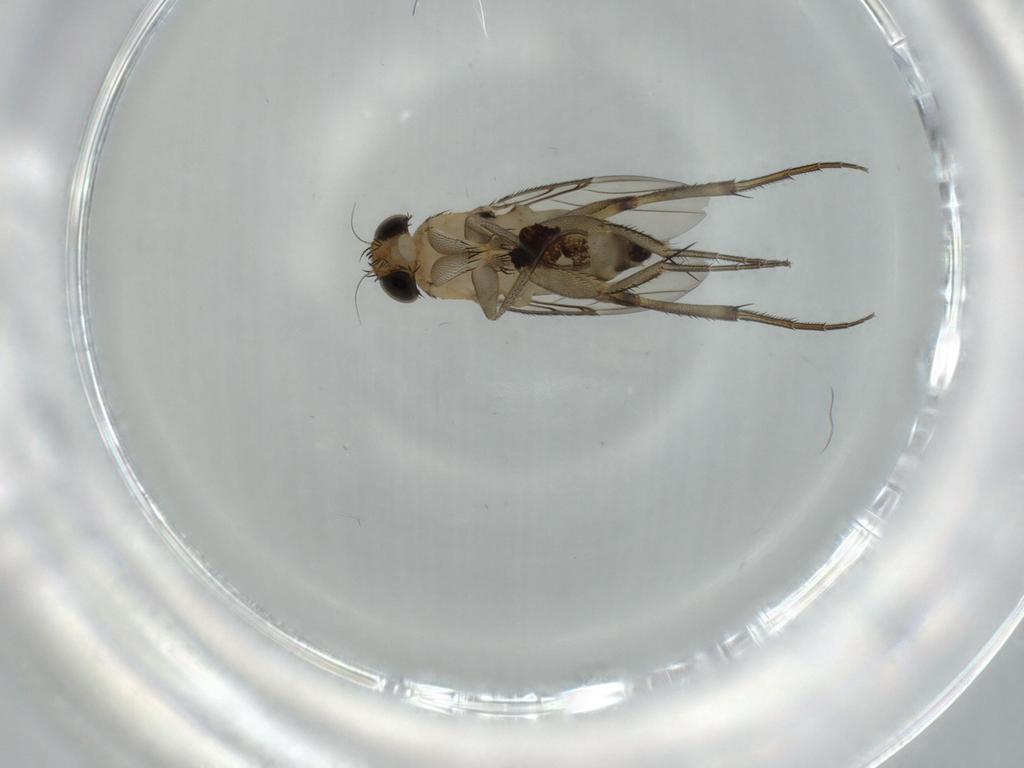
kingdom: Animalia
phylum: Arthropoda
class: Insecta
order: Diptera
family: Phoridae
